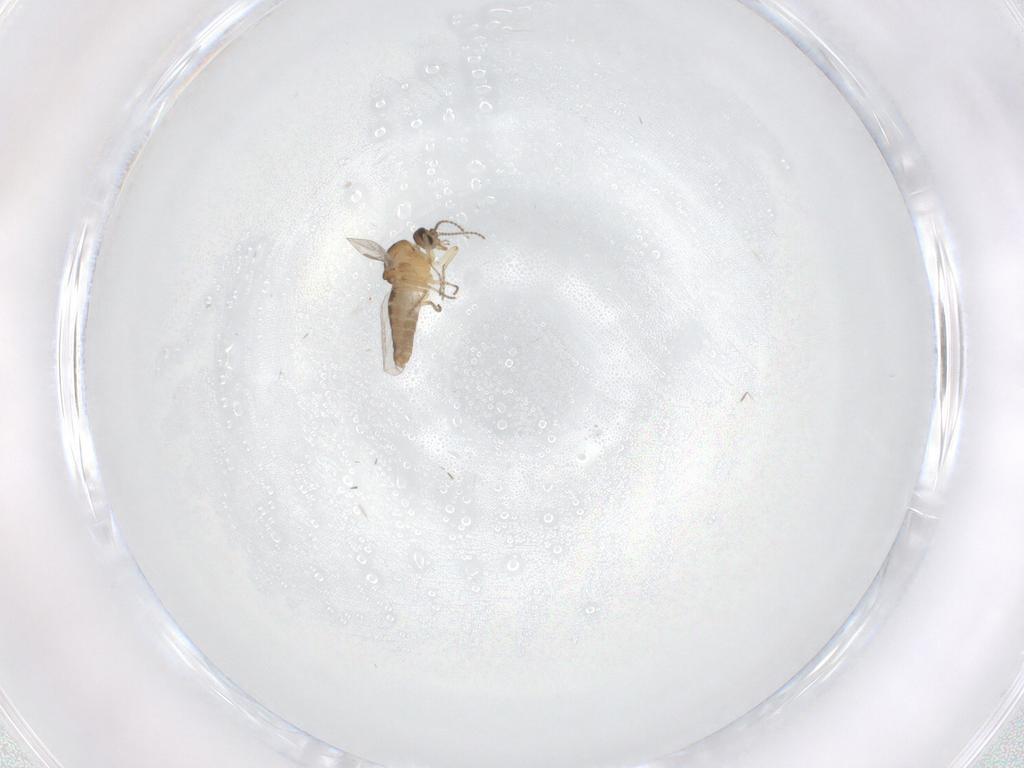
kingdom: Animalia
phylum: Arthropoda
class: Insecta
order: Diptera
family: Ceratopogonidae
